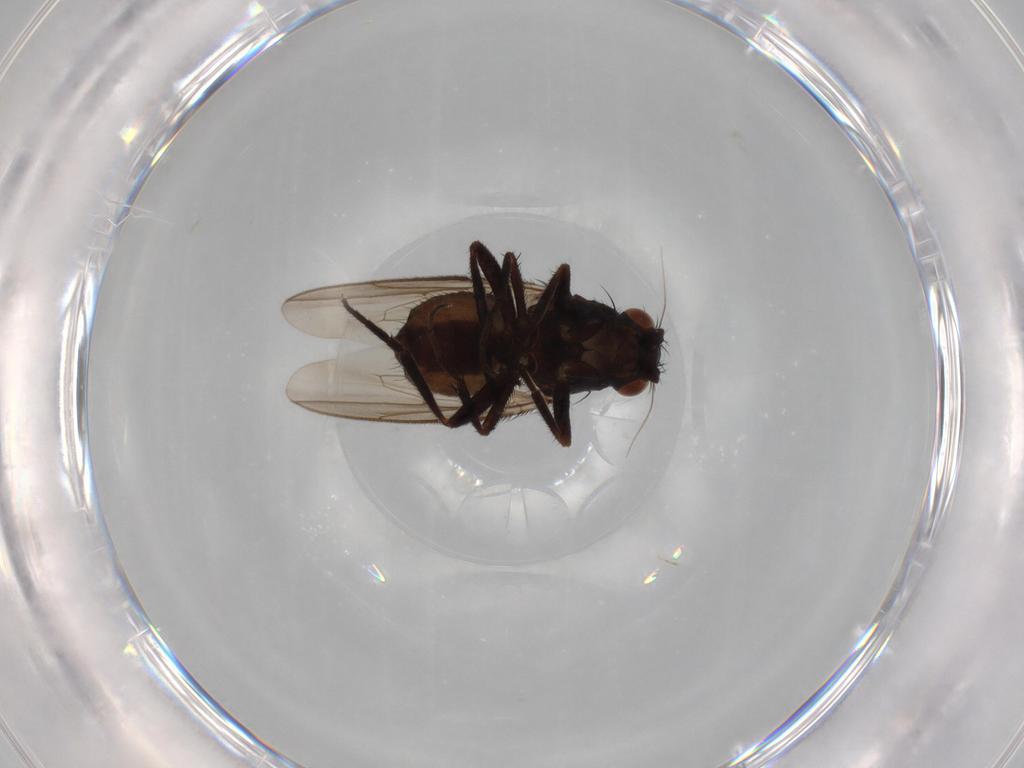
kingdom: Animalia
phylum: Arthropoda
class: Insecta
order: Diptera
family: Sphaeroceridae
